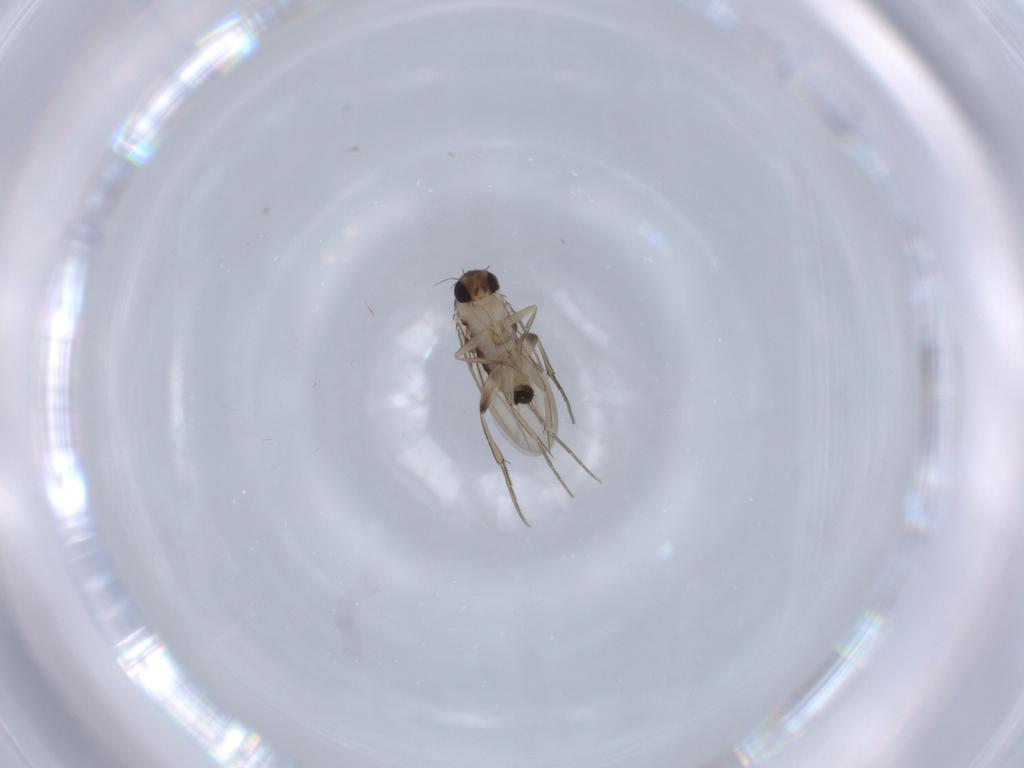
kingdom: Animalia
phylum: Arthropoda
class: Insecta
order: Diptera
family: Phoridae
